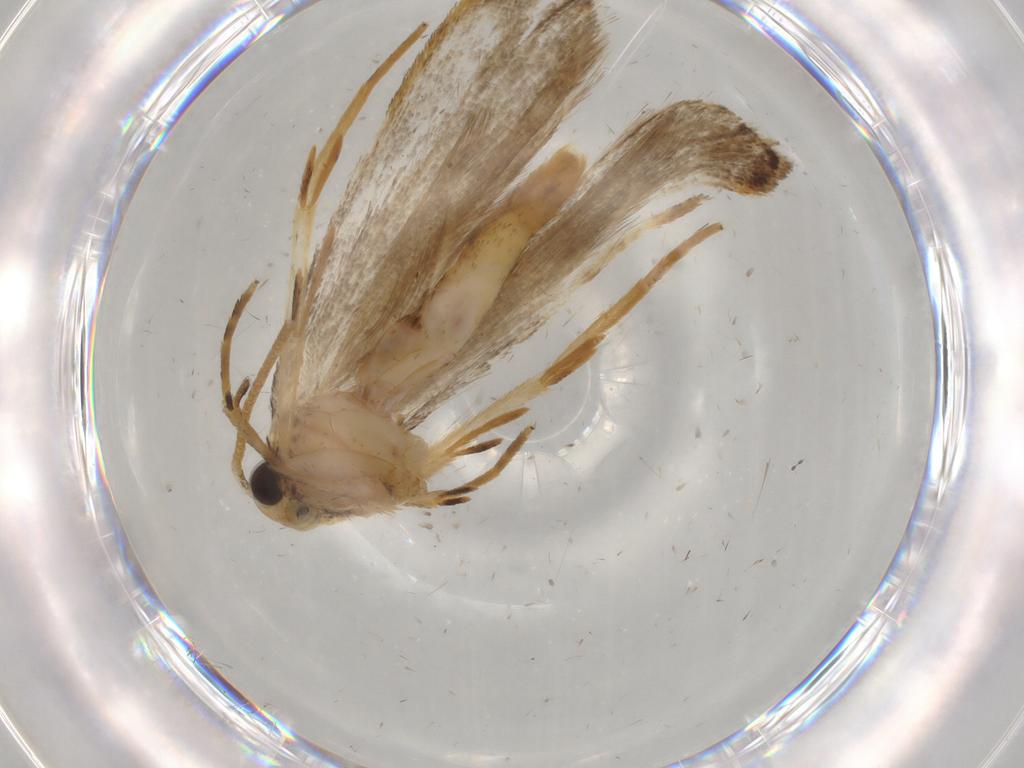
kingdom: Animalia
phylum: Arthropoda
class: Insecta
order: Lepidoptera
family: Autostichidae
